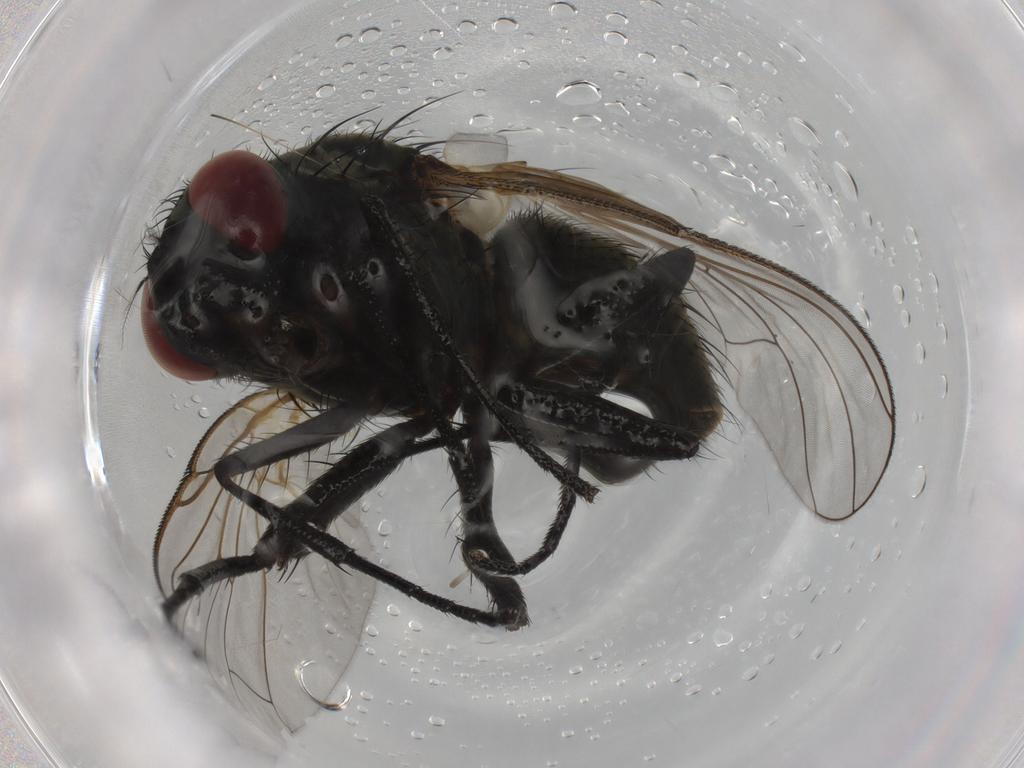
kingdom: Animalia
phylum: Arthropoda
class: Insecta
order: Diptera
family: Muscidae
